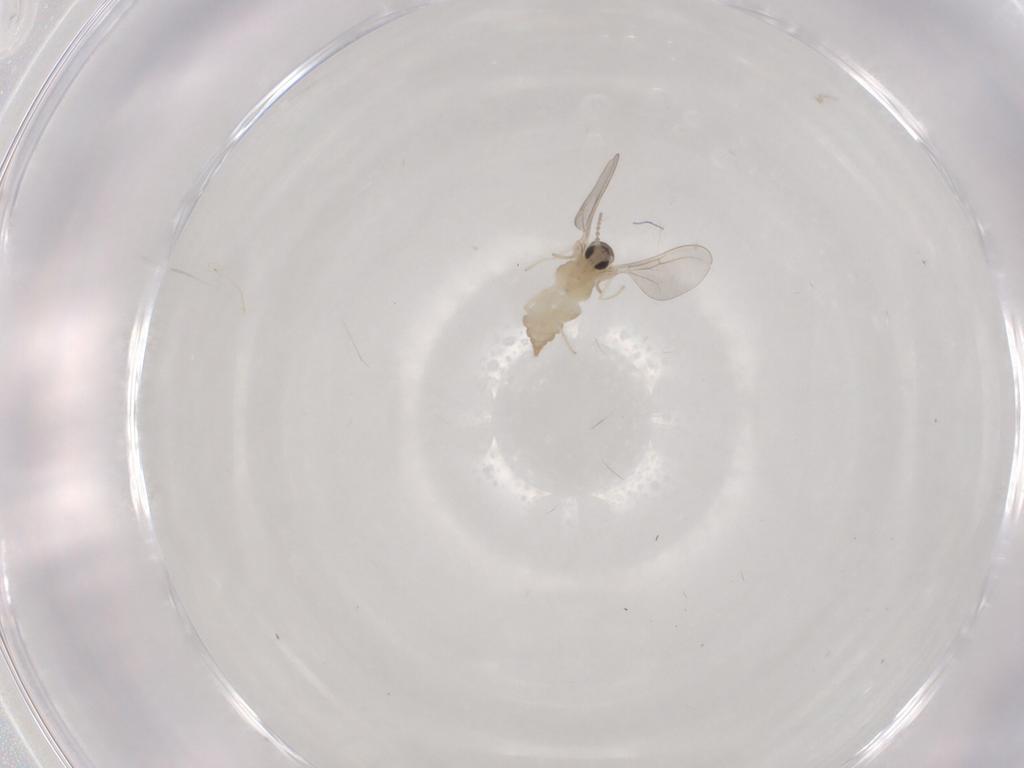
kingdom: Animalia
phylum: Arthropoda
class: Insecta
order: Diptera
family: Cecidomyiidae
